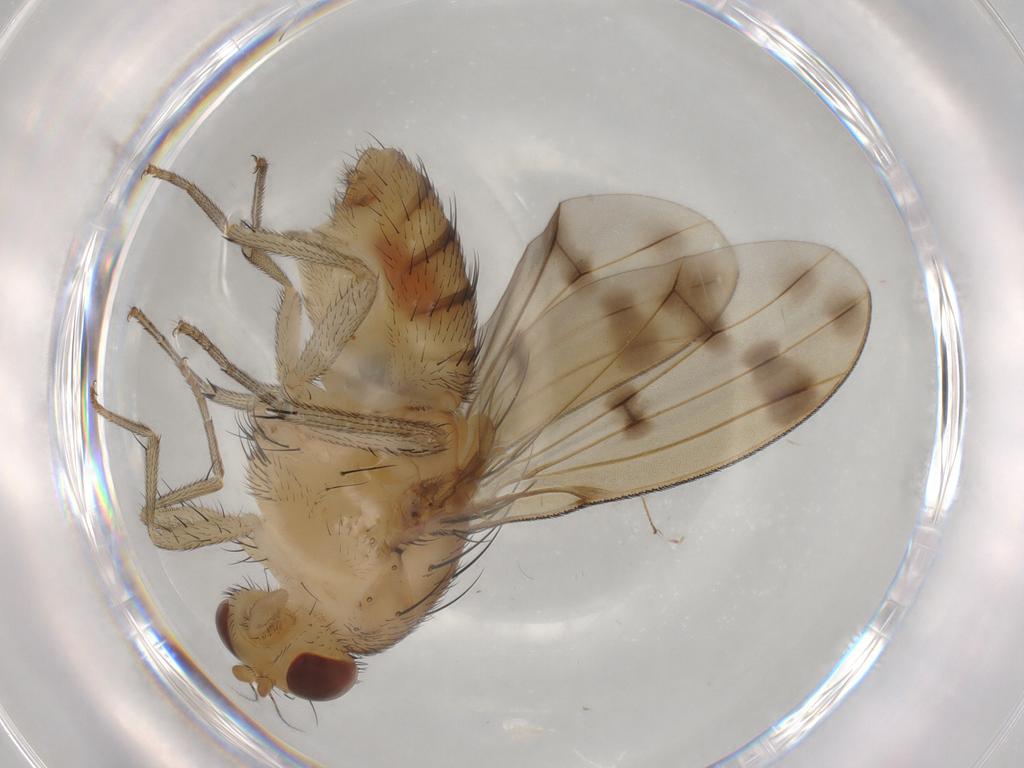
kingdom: Animalia
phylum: Arthropoda
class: Insecta
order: Diptera
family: Lauxaniidae
